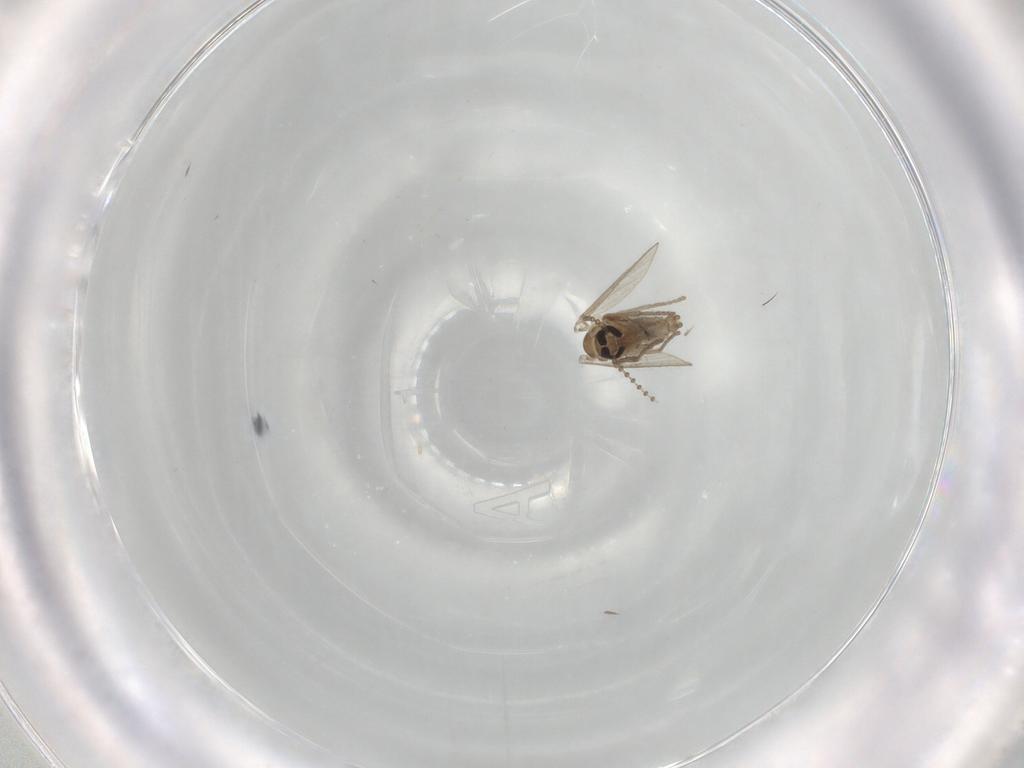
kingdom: Animalia
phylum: Arthropoda
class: Insecta
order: Diptera
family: Psychodidae
